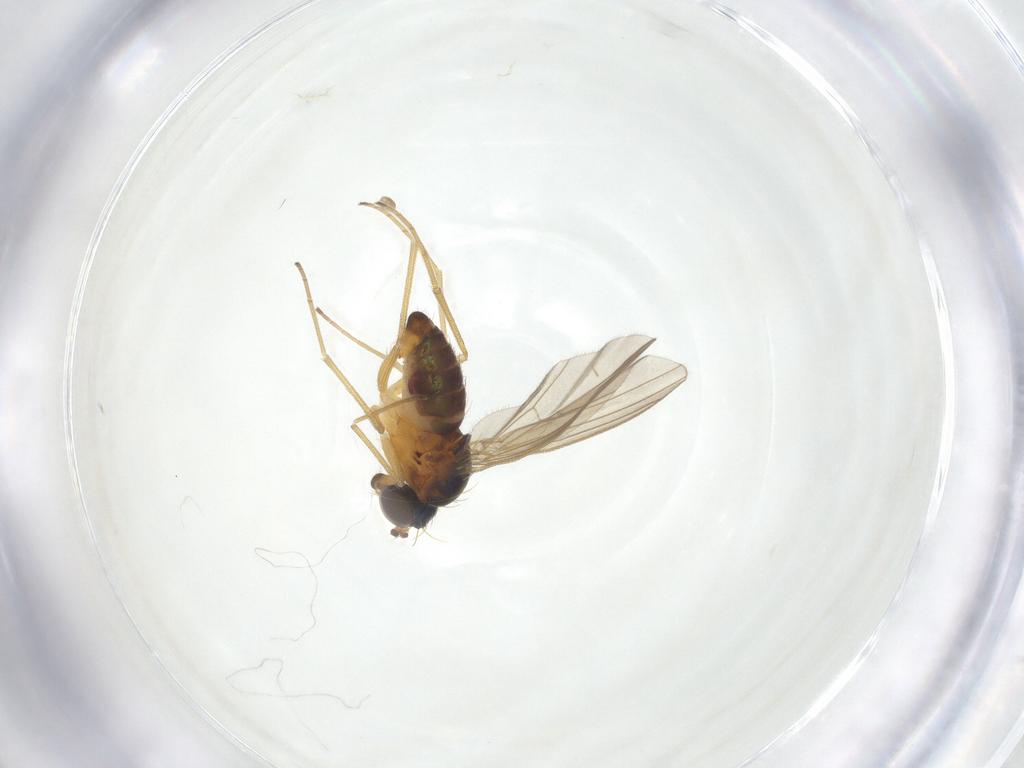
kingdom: Animalia
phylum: Arthropoda
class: Insecta
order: Diptera
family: Dolichopodidae
